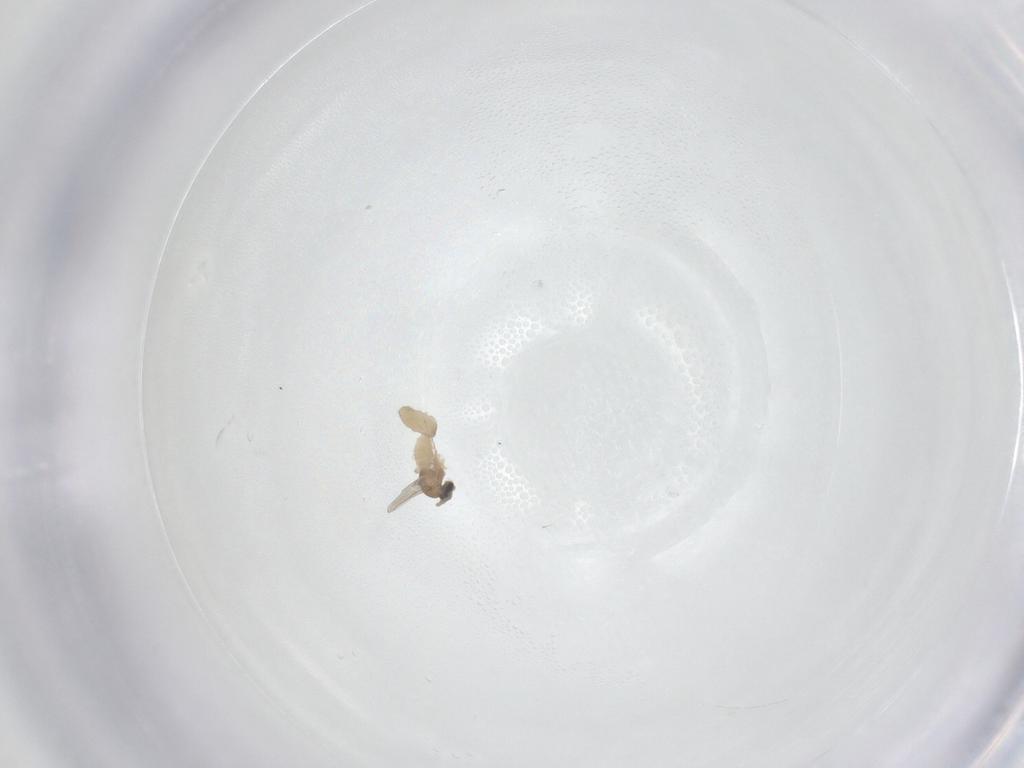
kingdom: Animalia
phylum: Arthropoda
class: Insecta
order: Diptera
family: Cecidomyiidae
